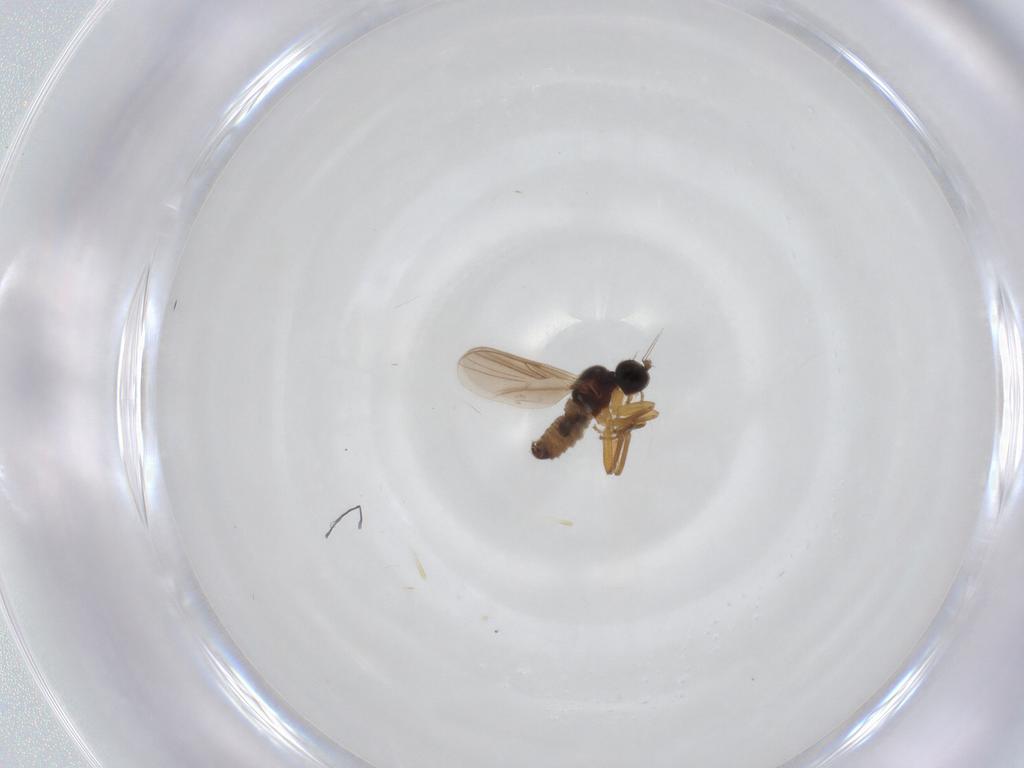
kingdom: Animalia
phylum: Arthropoda
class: Insecta
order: Diptera
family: Hybotidae
